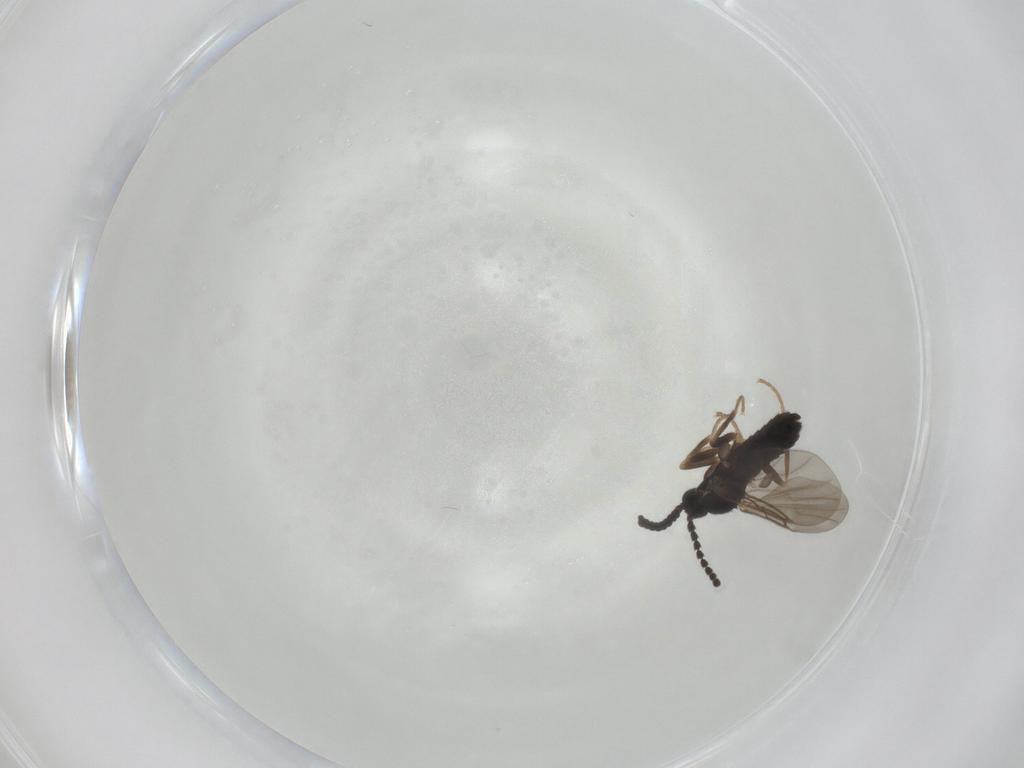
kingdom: Animalia
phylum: Arthropoda
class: Insecta
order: Diptera
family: Scatopsidae
